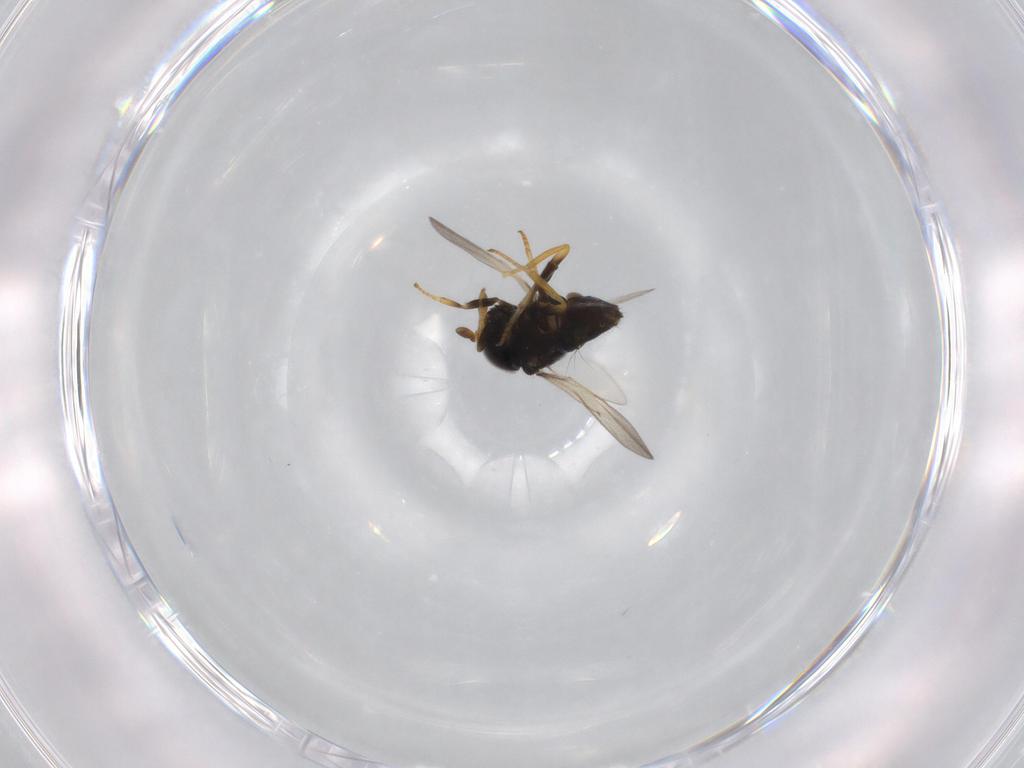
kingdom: Animalia
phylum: Arthropoda
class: Insecta
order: Hymenoptera
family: Encyrtidae
